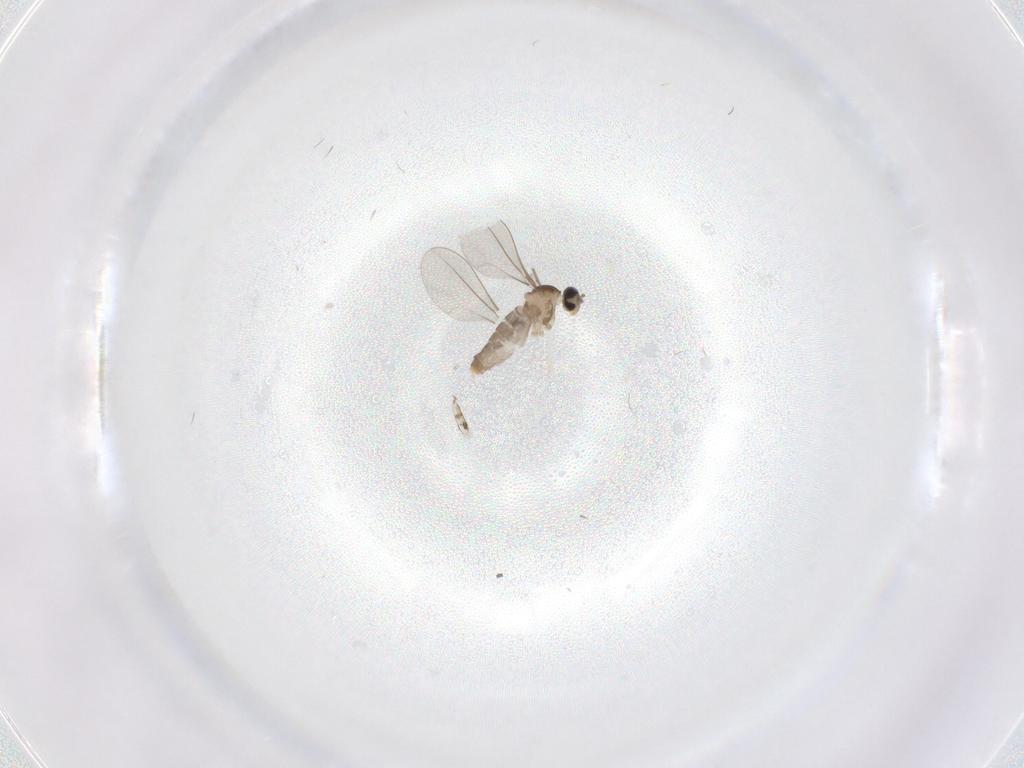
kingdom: Animalia
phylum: Arthropoda
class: Insecta
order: Diptera
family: Cecidomyiidae
